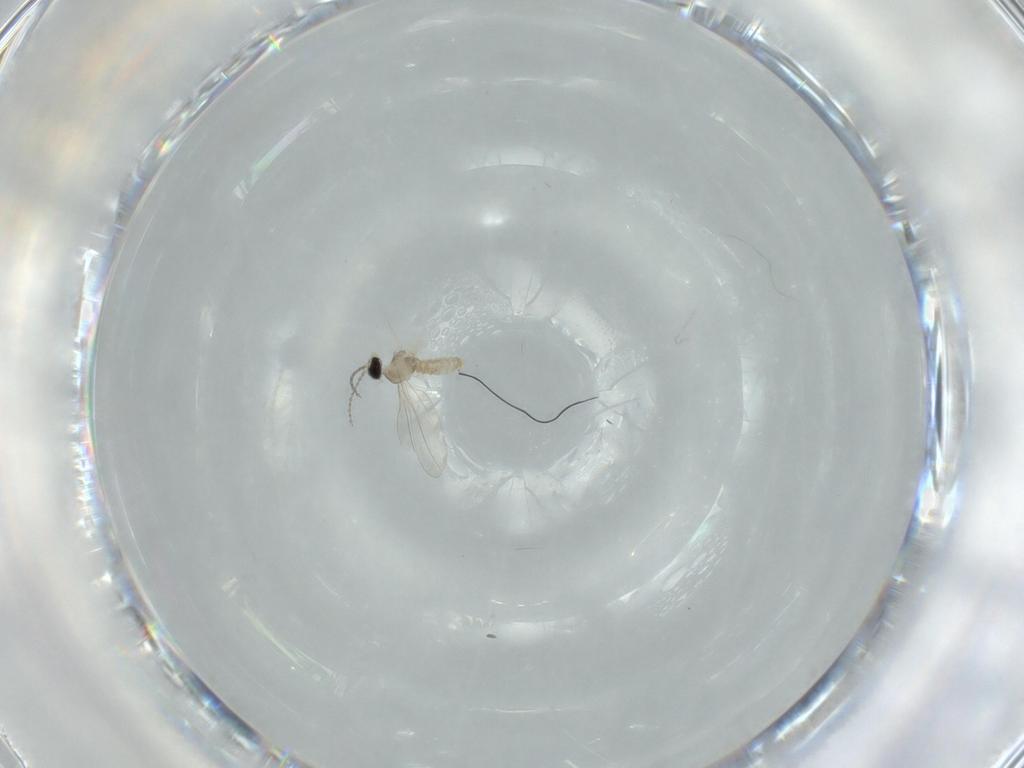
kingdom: Animalia
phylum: Arthropoda
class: Insecta
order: Diptera
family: Cecidomyiidae
